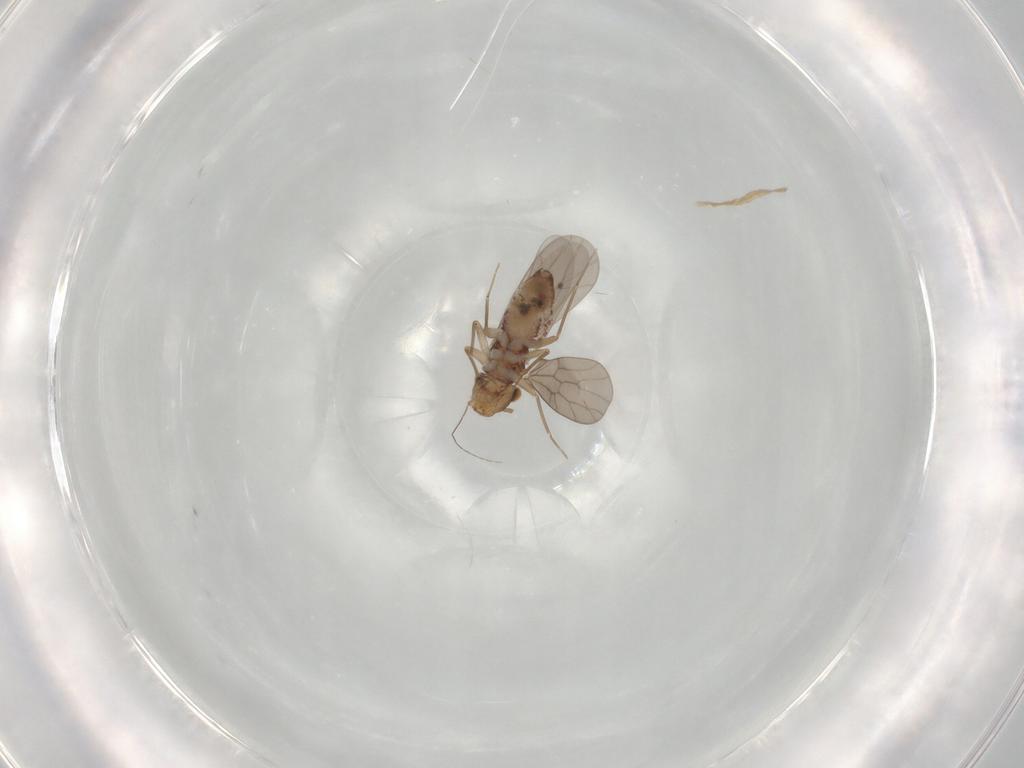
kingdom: Animalia
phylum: Arthropoda
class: Insecta
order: Psocodea
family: Lepidopsocidae
